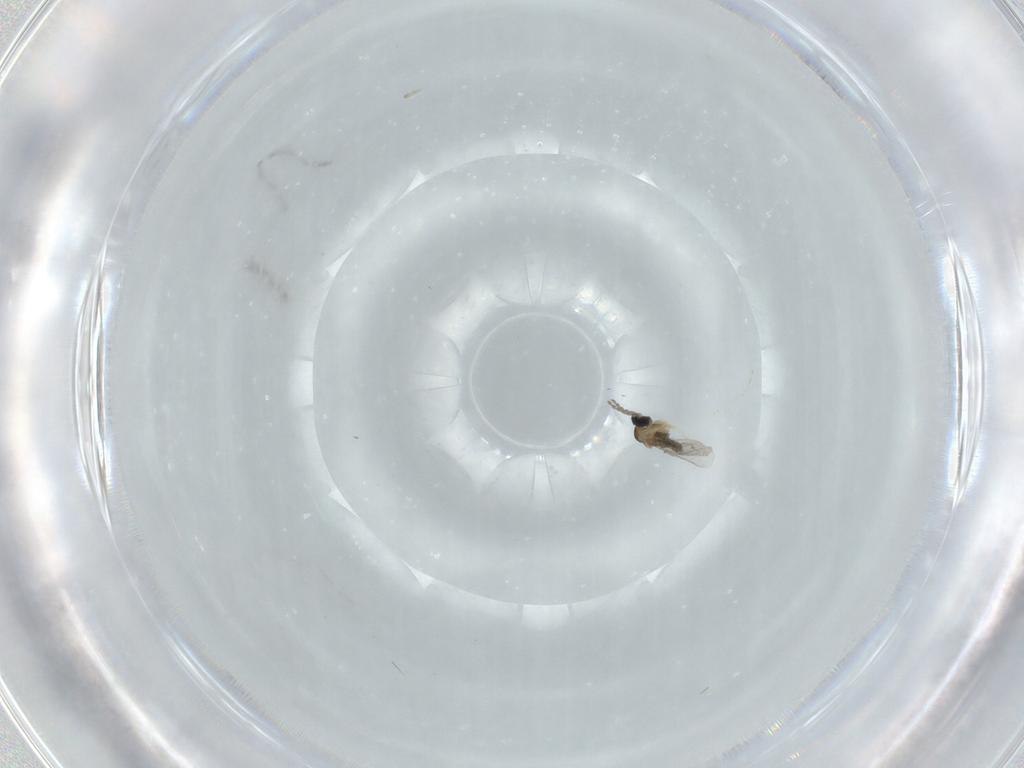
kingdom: Animalia
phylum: Arthropoda
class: Insecta
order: Diptera
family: Cecidomyiidae
